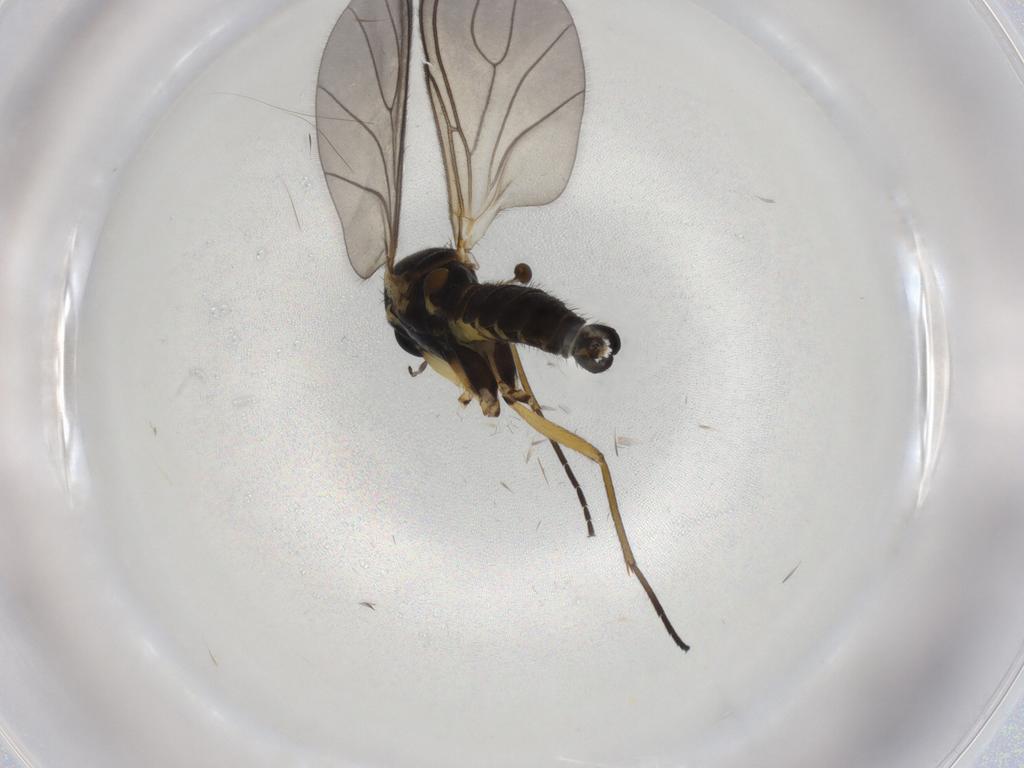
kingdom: Animalia
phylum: Arthropoda
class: Insecta
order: Diptera
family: Sciaridae
